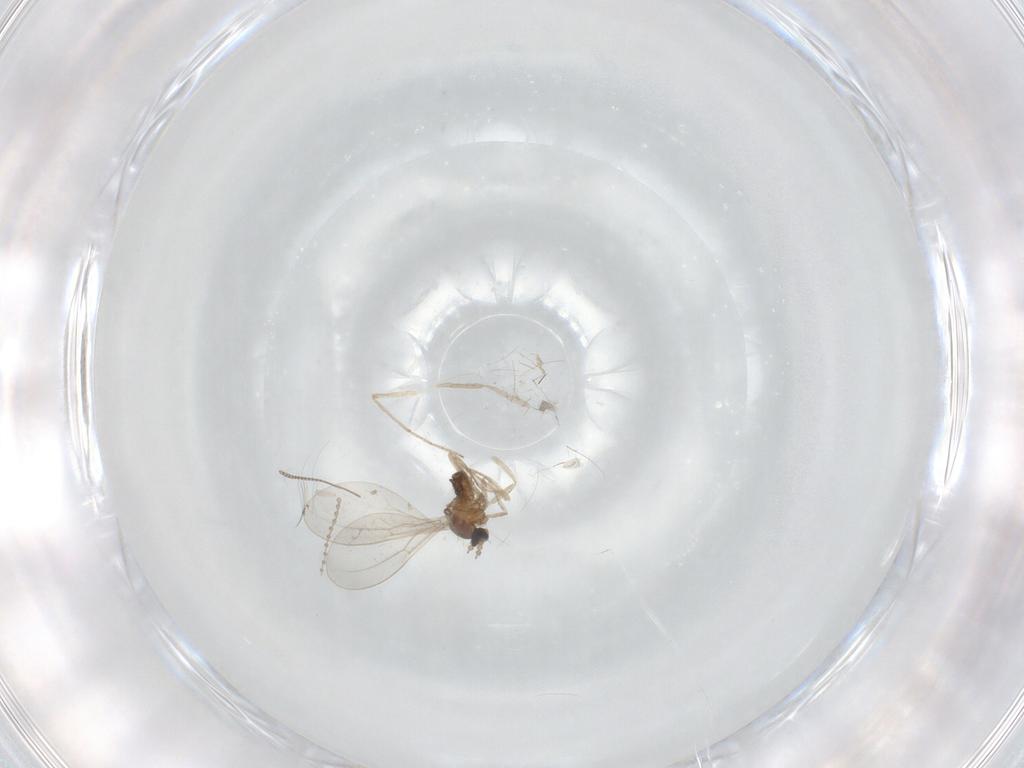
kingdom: Animalia
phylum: Arthropoda
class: Insecta
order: Diptera
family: Cecidomyiidae
